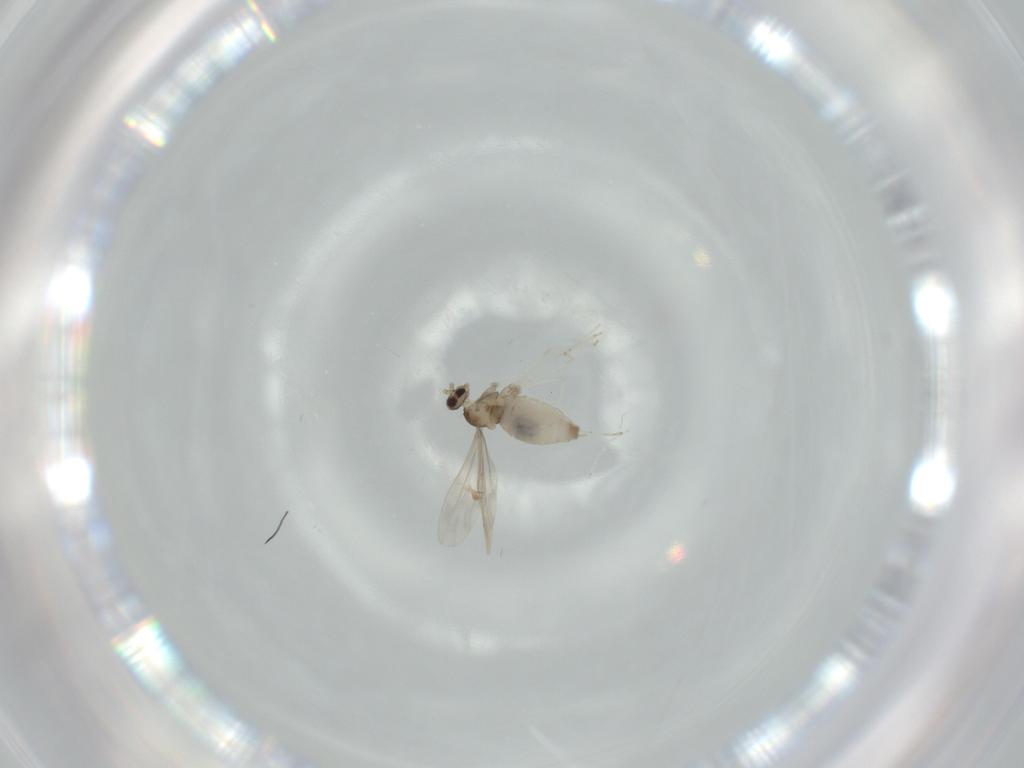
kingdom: Animalia
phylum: Arthropoda
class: Insecta
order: Diptera
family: Cecidomyiidae
